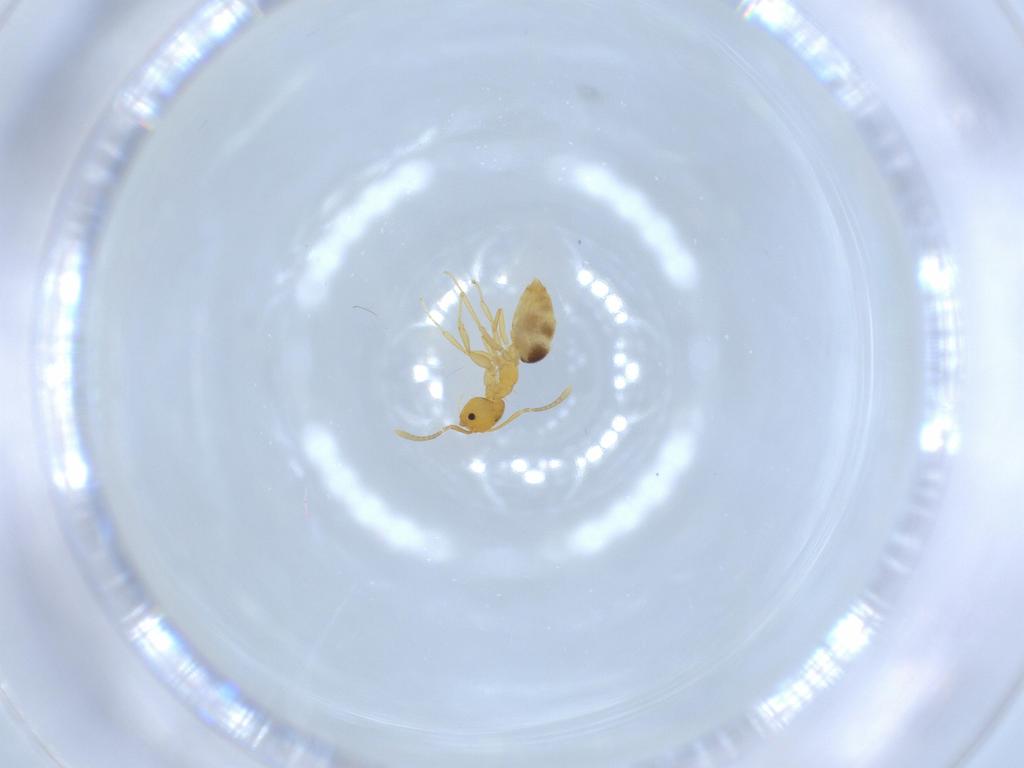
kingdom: Animalia
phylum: Arthropoda
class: Insecta
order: Hymenoptera
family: Formicidae
